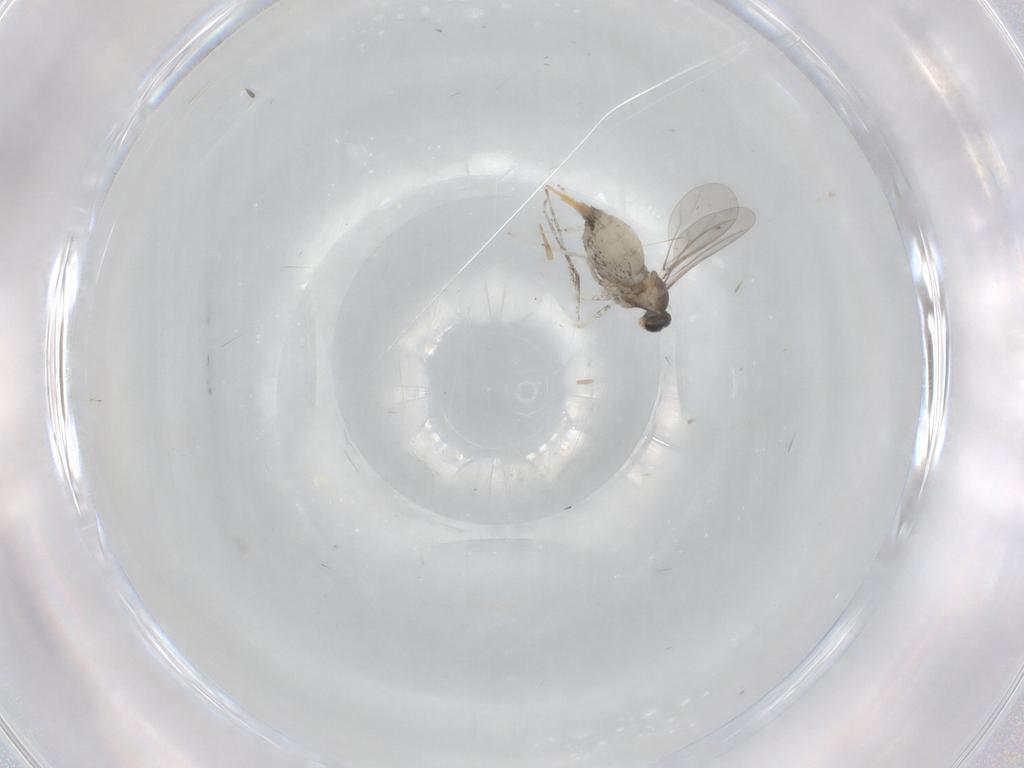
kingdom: Animalia
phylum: Arthropoda
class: Insecta
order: Diptera
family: Cecidomyiidae
